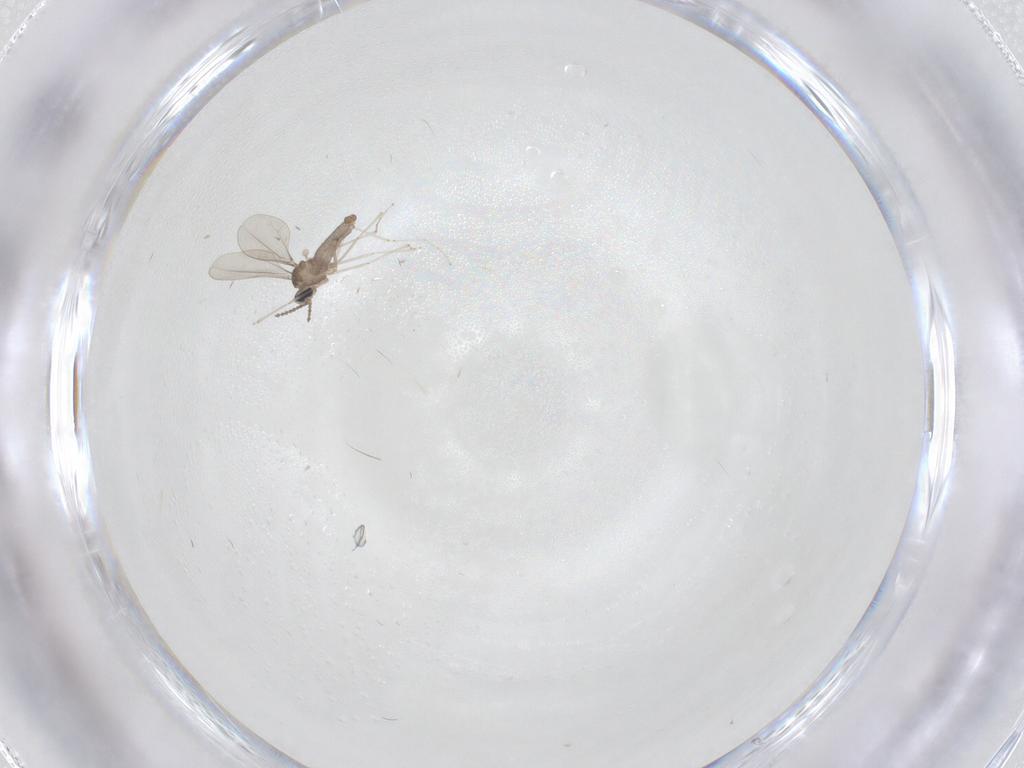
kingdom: Animalia
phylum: Arthropoda
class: Insecta
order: Diptera
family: Cecidomyiidae
